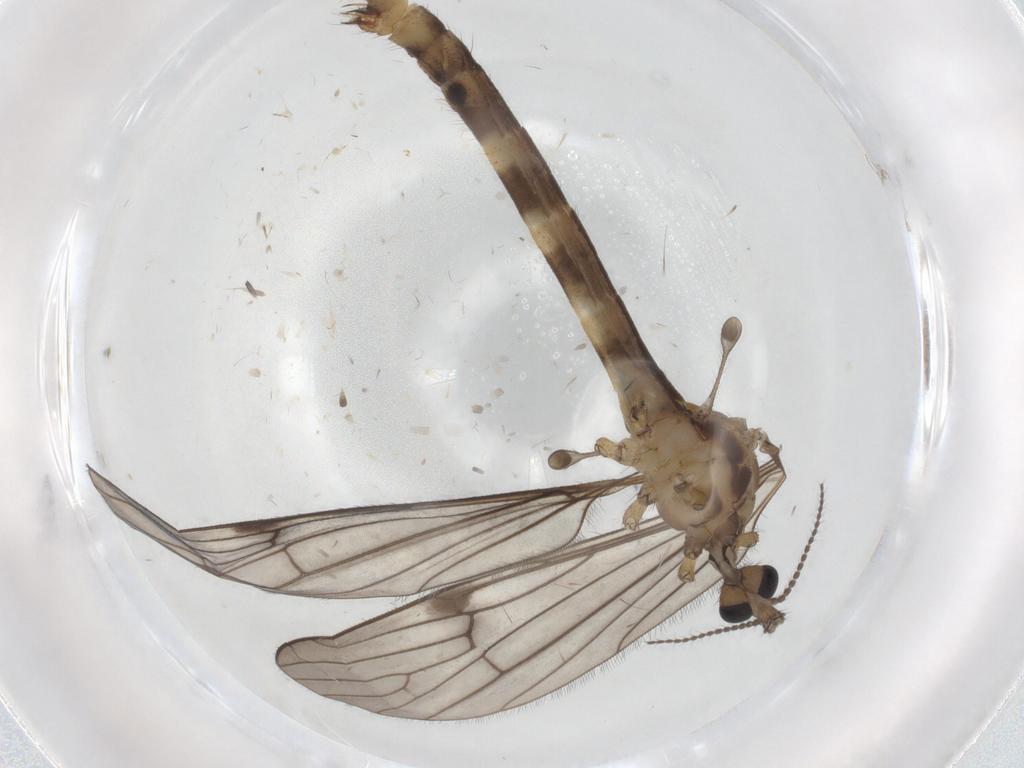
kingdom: Animalia
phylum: Arthropoda
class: Insecta
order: Diptera
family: Limoniidae
